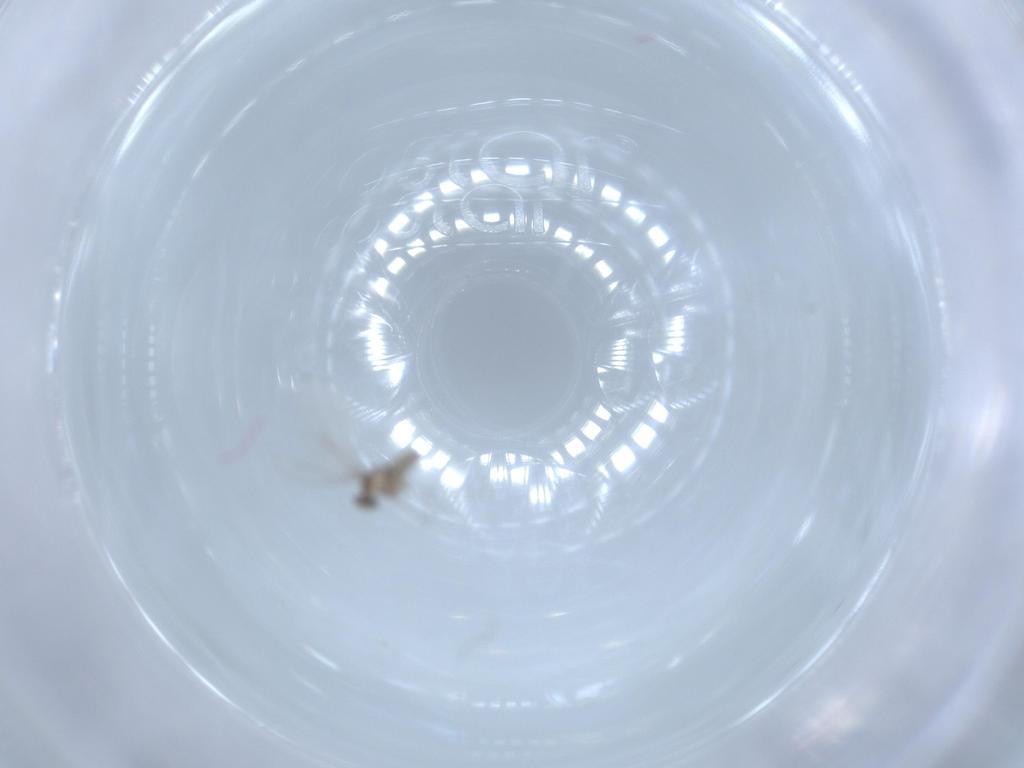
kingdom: Animalia
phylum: Arthropoda
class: Insecta
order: Diptera
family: Cecidomyiidae
